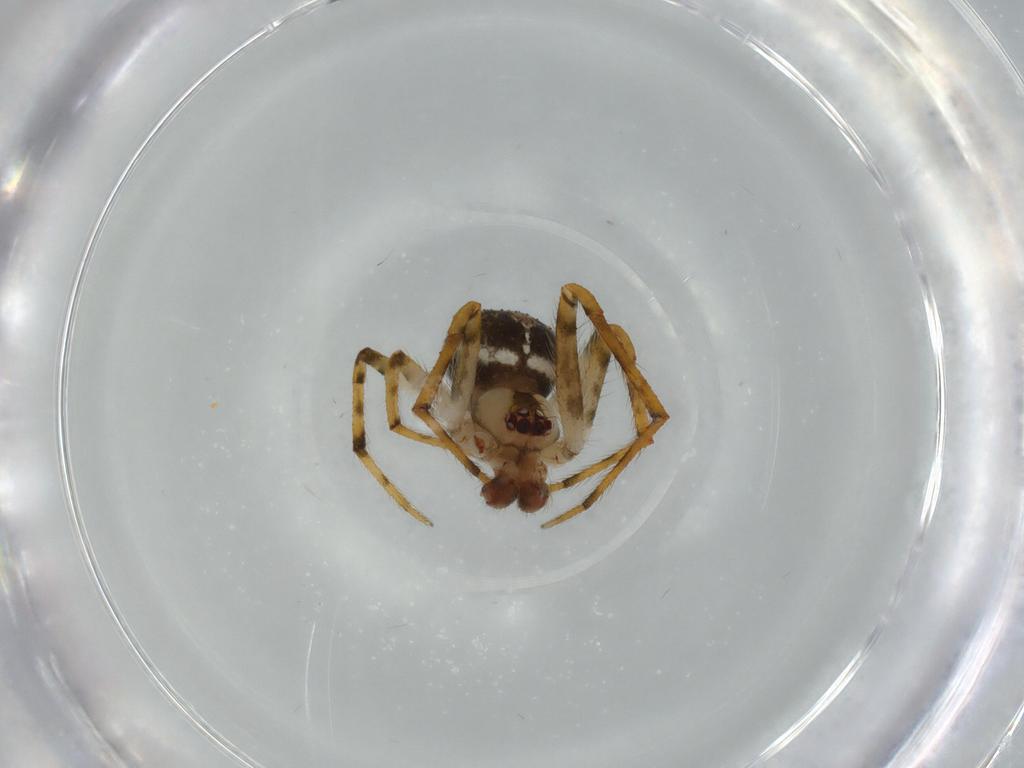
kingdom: Animalia
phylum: Arthropoda
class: Arachnida
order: Araneae
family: Theridiidae
